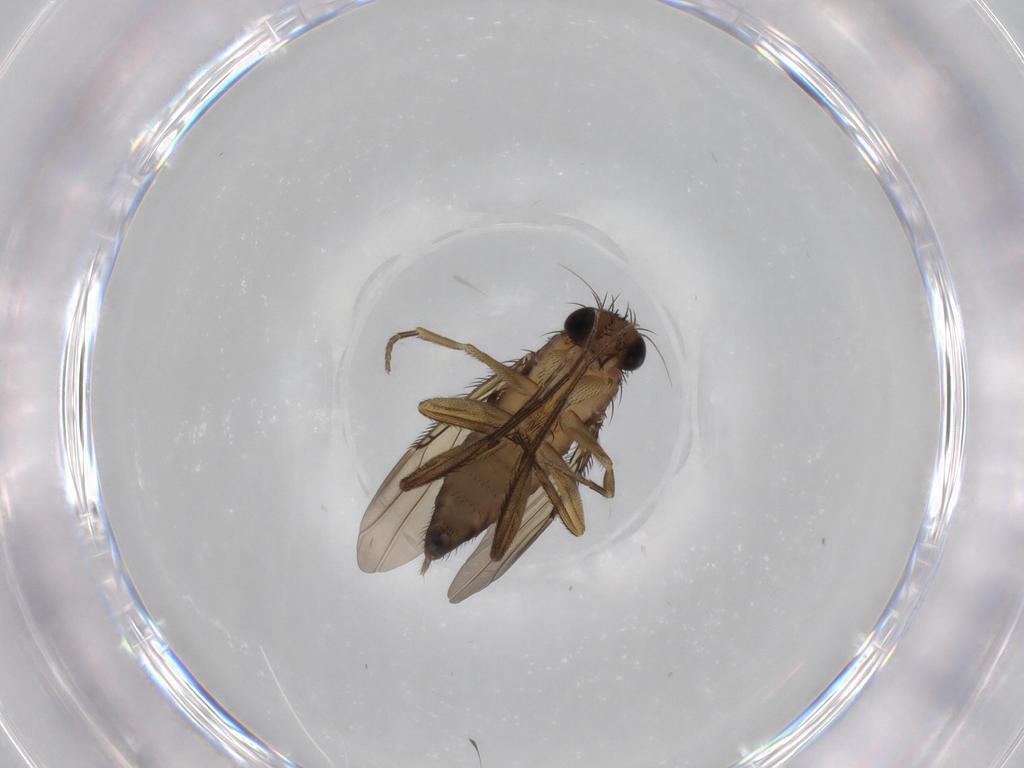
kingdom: Animalia
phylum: Arthropoda
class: Insecta
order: Diptera
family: Phoridae
